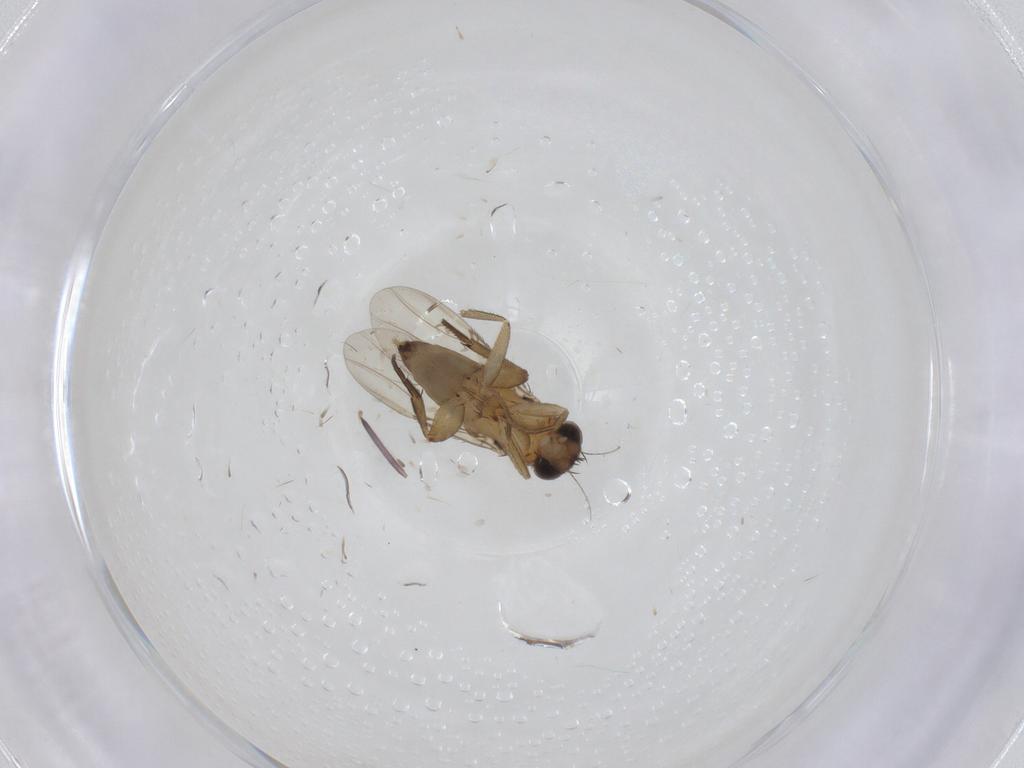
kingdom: Animalia
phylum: Arthropoda
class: Insecta
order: Diptera
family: Phoridae
